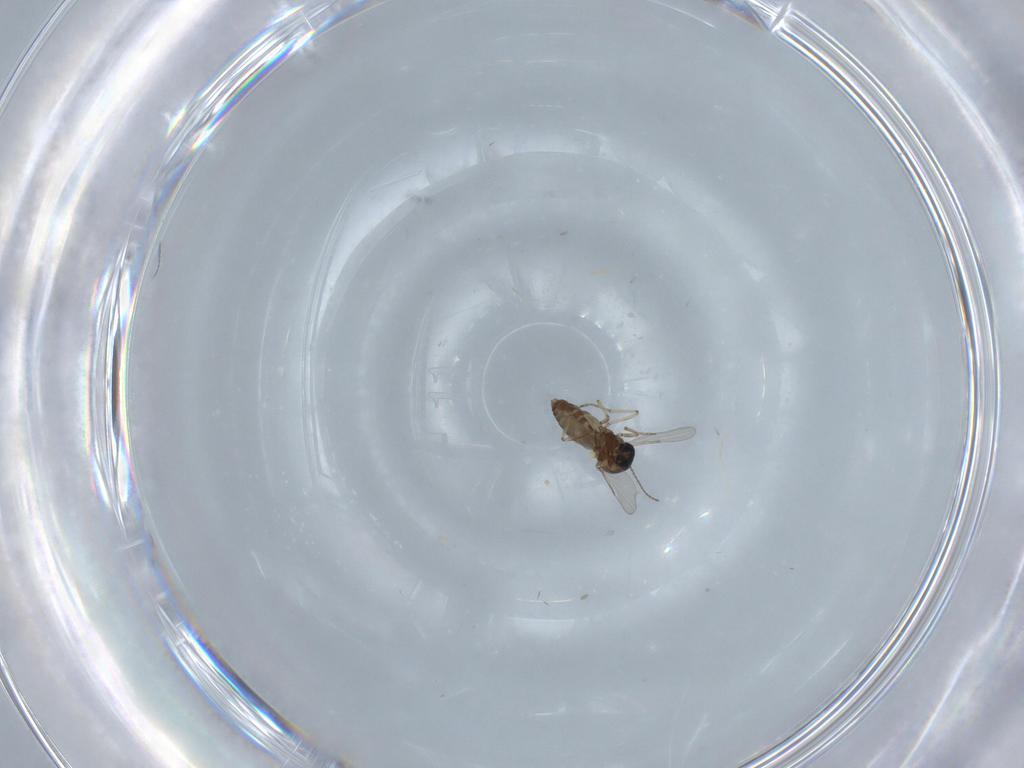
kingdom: Animalia
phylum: Arthropoda
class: Insecta
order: Diptera
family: Ceratopogonidae
